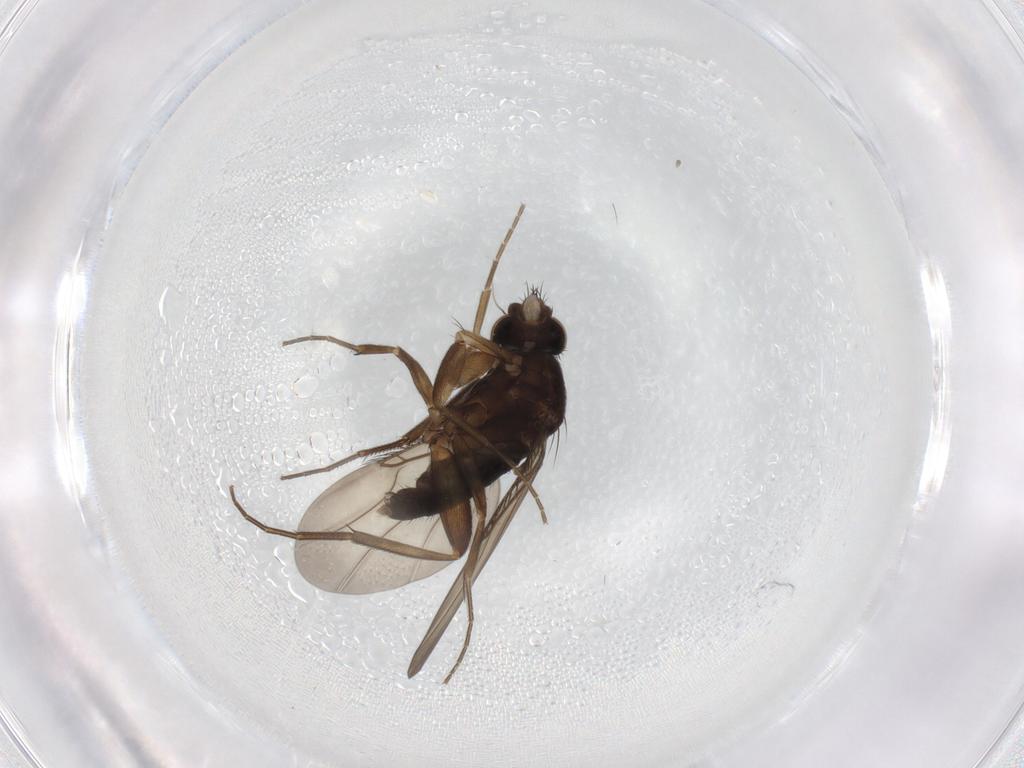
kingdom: Animalia
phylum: Arthropoda
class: Insecta
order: Diptera
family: Phoridae
